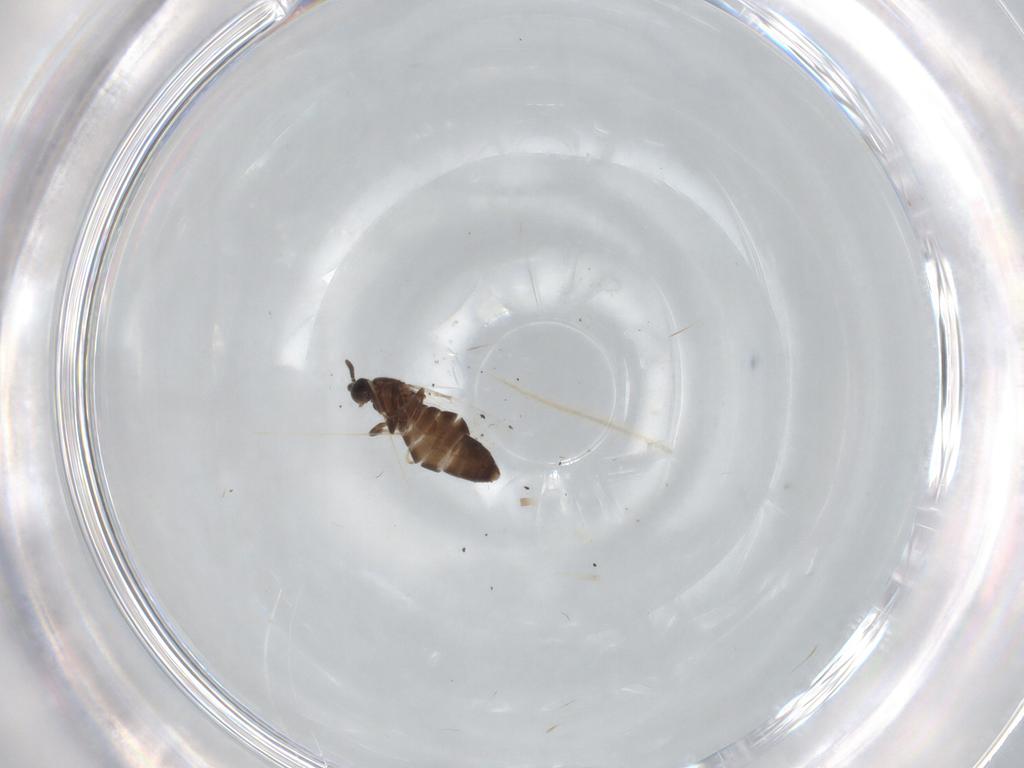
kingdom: Animalia
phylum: Arthropoda
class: Insecta
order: Diptera
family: Scatopsidae
